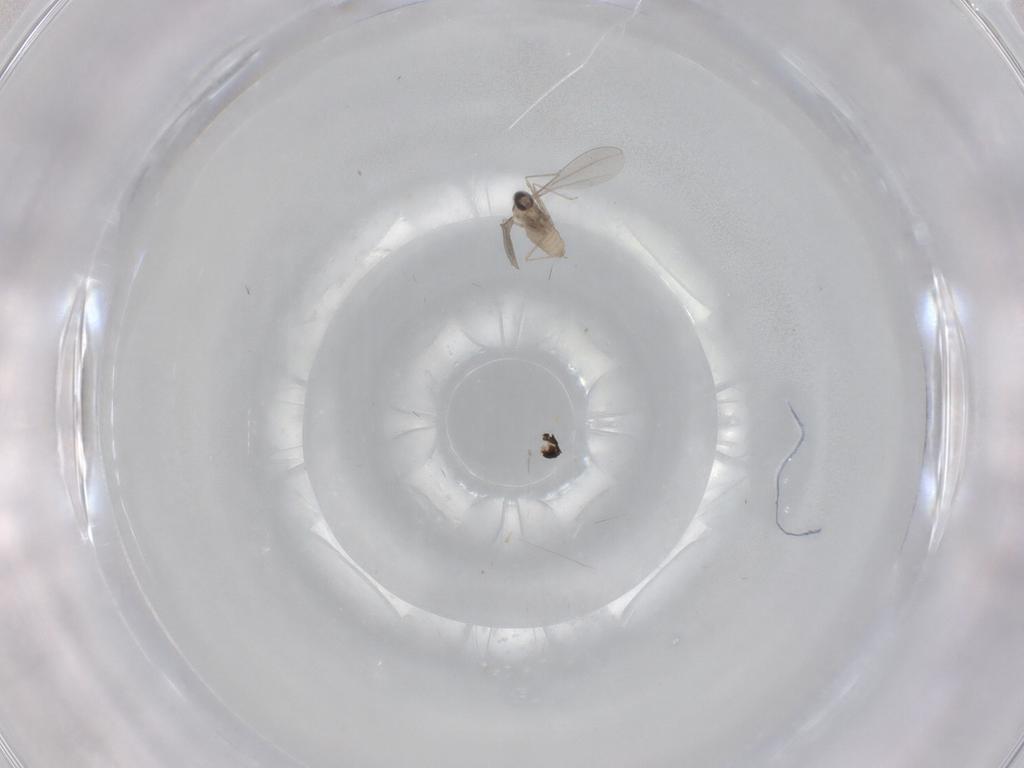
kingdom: Animalia
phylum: Arthropoda
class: Insecta
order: Diptera
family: Cecidomyiidae
